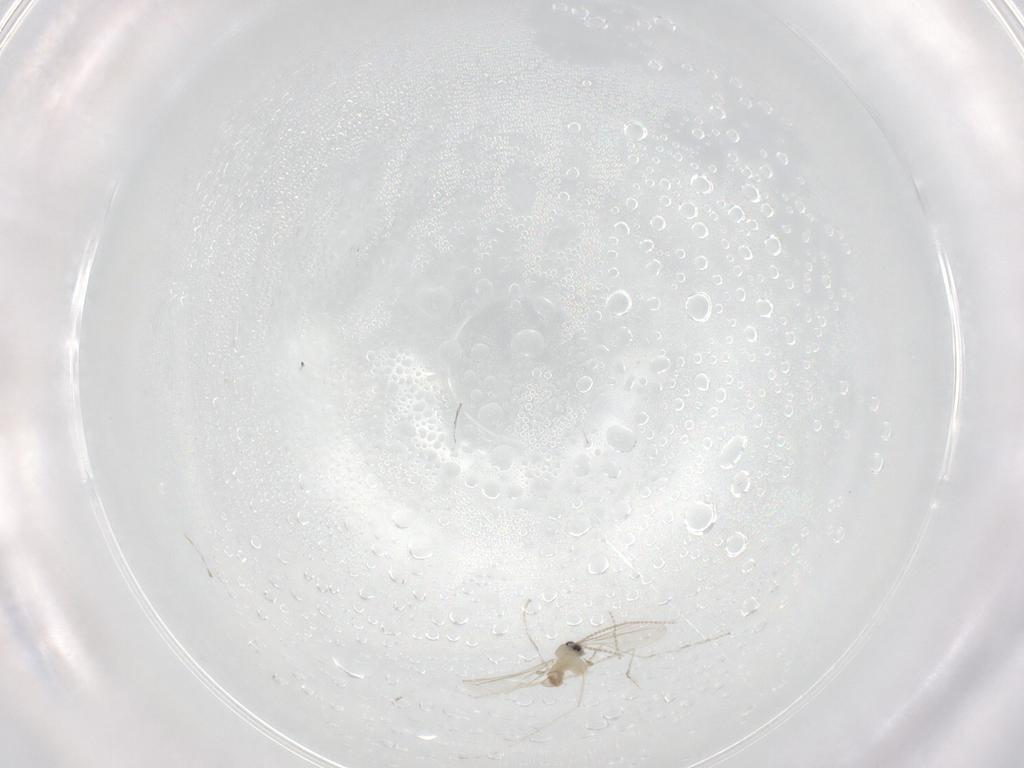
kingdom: Animalia
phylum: Arthropoda
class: Insecta
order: Diptera
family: Cecidomyiidae
